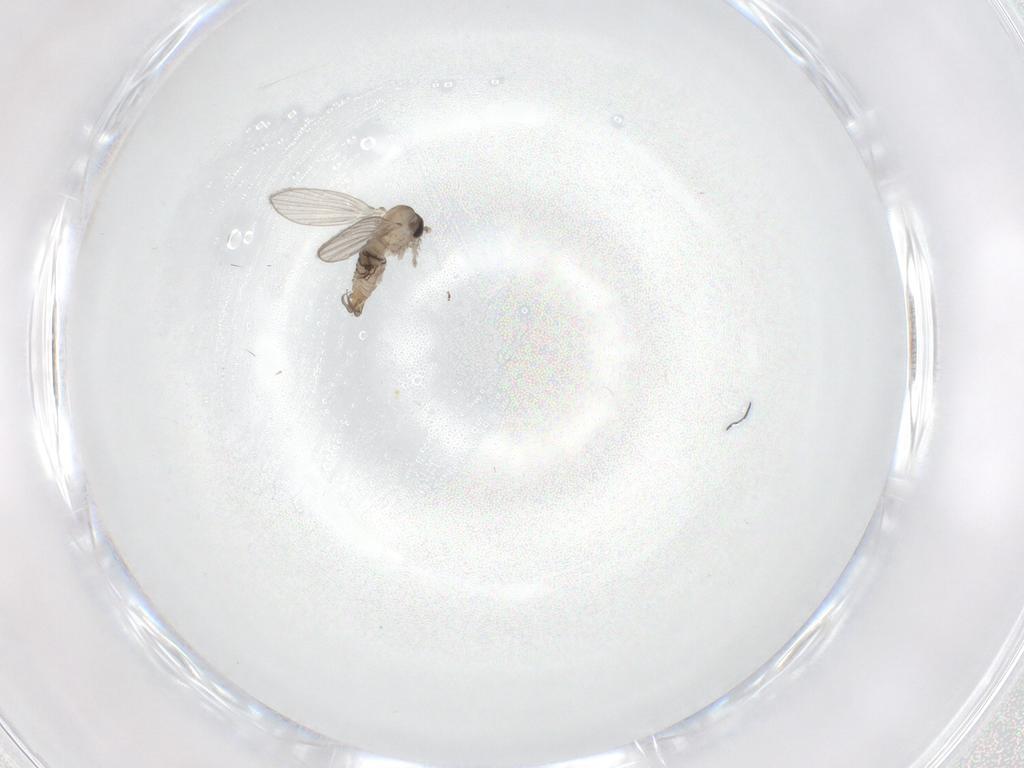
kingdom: Animalia
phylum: Arthropoda
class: Insecta
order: Diptera
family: Psychodidae
